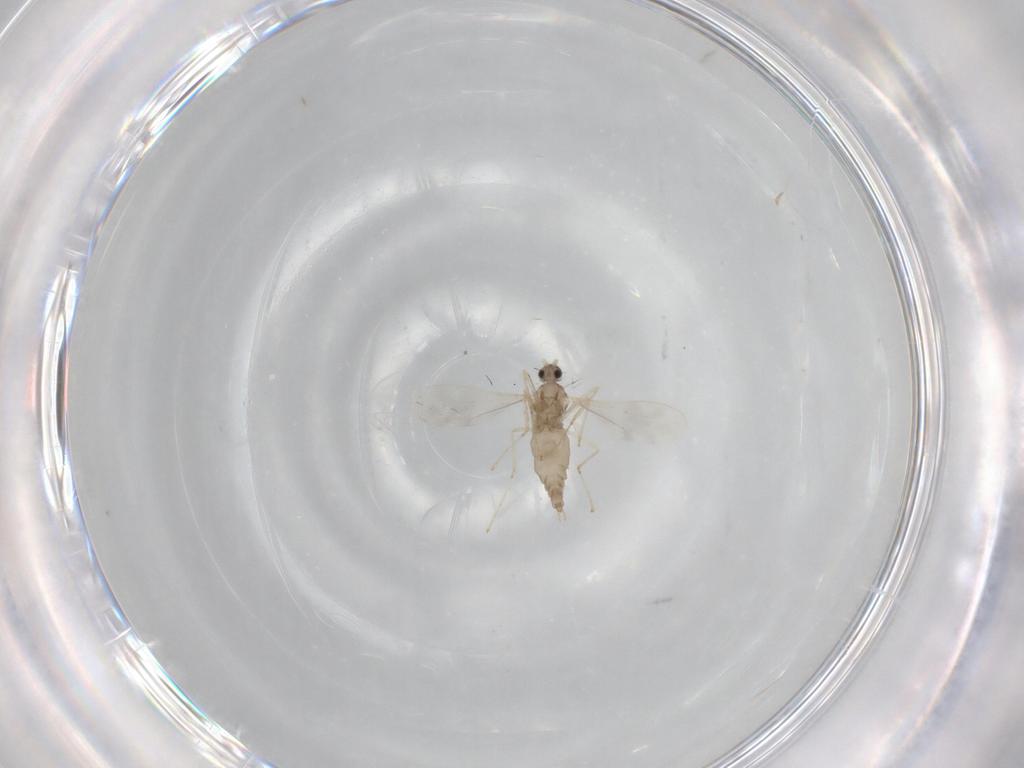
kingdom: Animalia
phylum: Arthropoda
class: Insecta
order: Diptera
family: Cecidomyiidae
